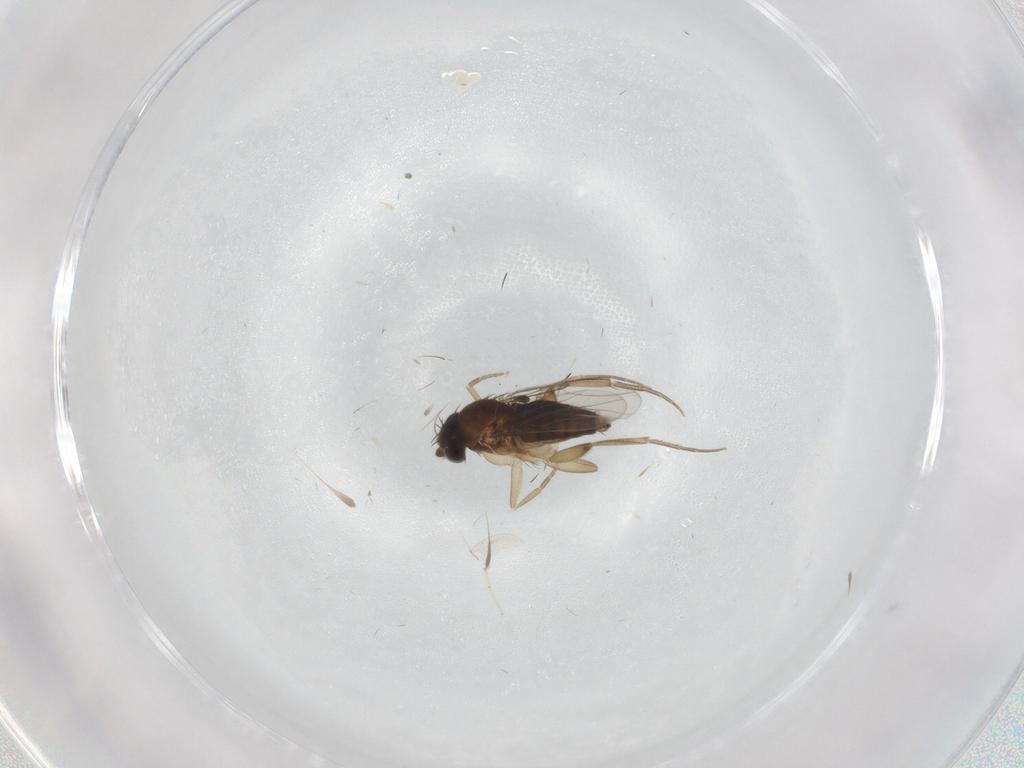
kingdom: Animalia
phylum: Arthropoda
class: Insecta
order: Diptera
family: Phoridae
